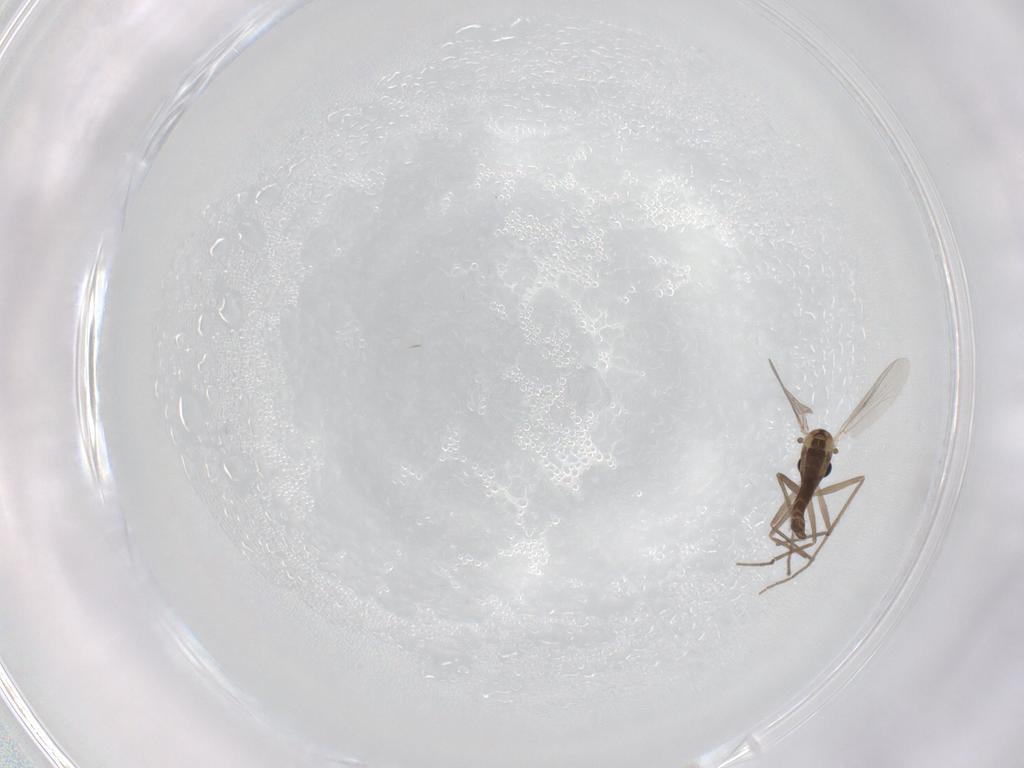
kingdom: Animalia
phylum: Arthropoda
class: Insecta
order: Diptera
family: Chironomidae
